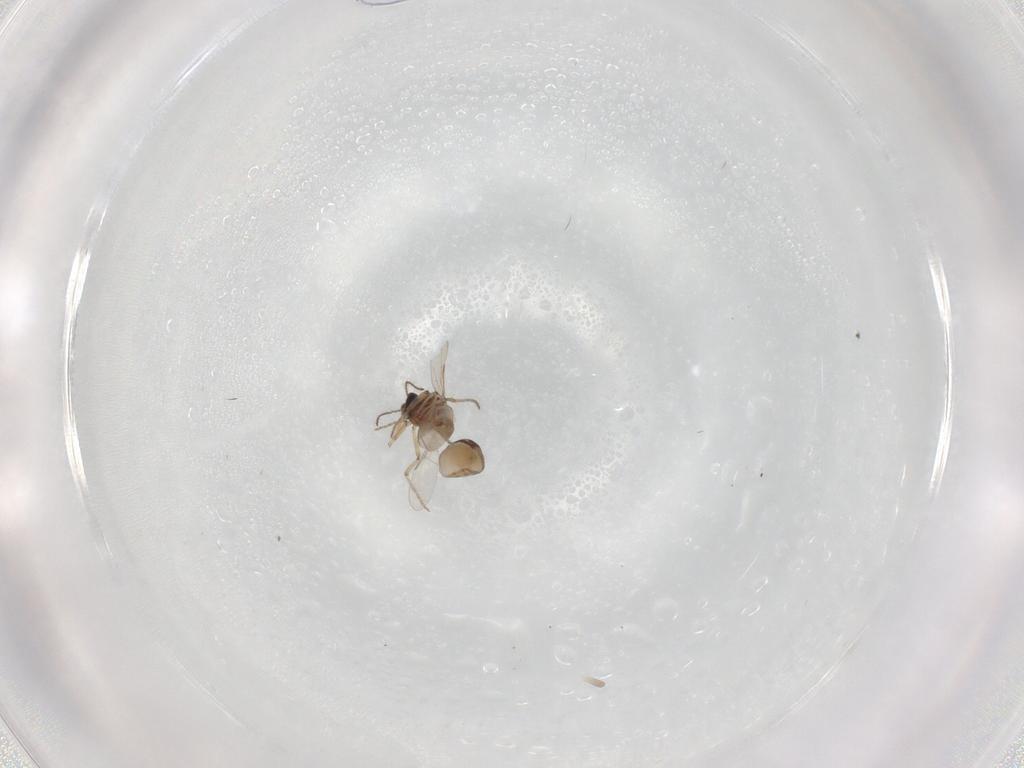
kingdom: Animalia
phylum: Arthropoda
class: Insecta
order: Diptera
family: Ceratopogonidae
